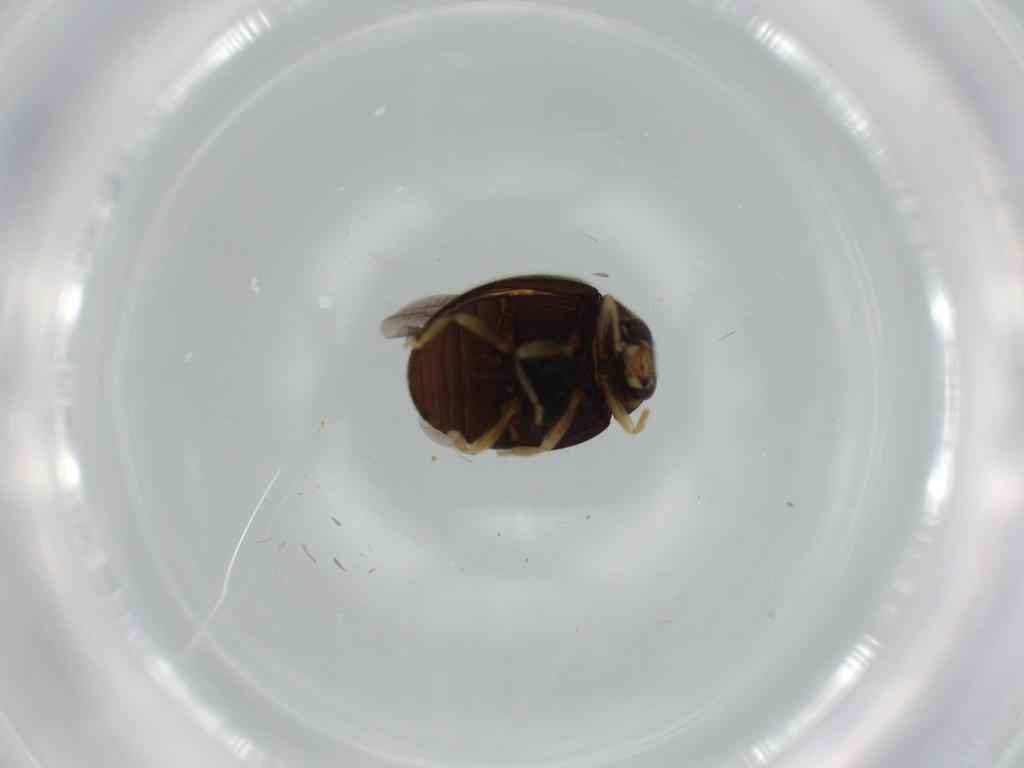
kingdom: Animalia
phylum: Arthropoda
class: Insecta
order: Coleoptera
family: Coccinellidae
